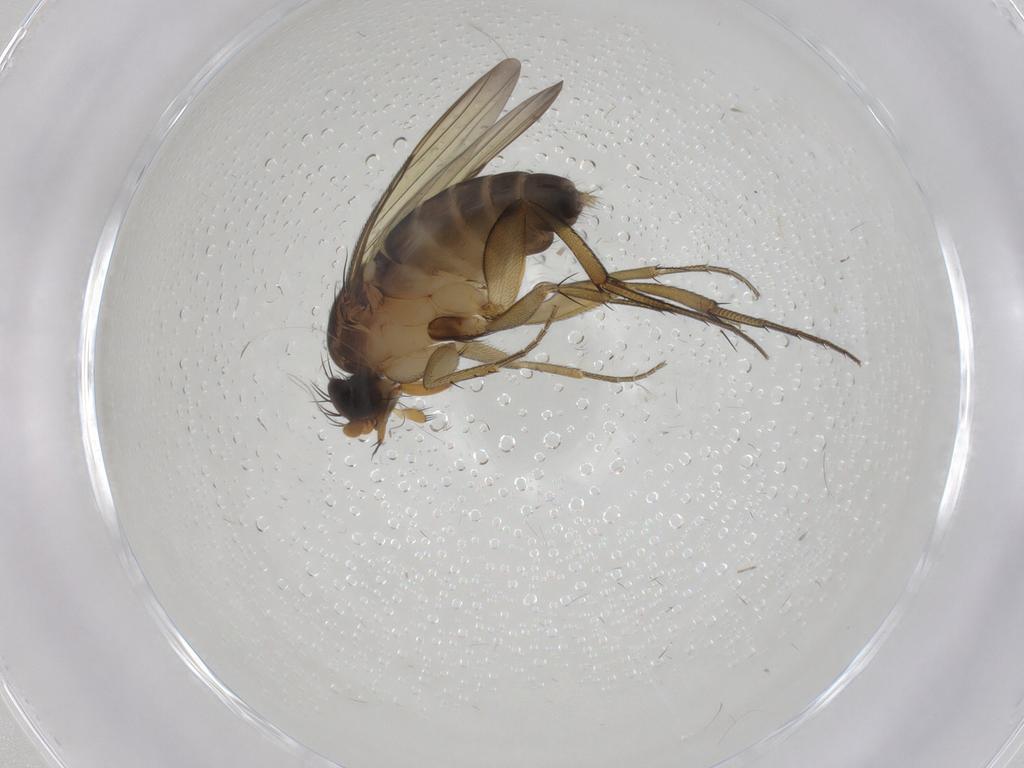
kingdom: Animalia
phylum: Arthropoda
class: Insecta
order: Diptera
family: Phoridae
